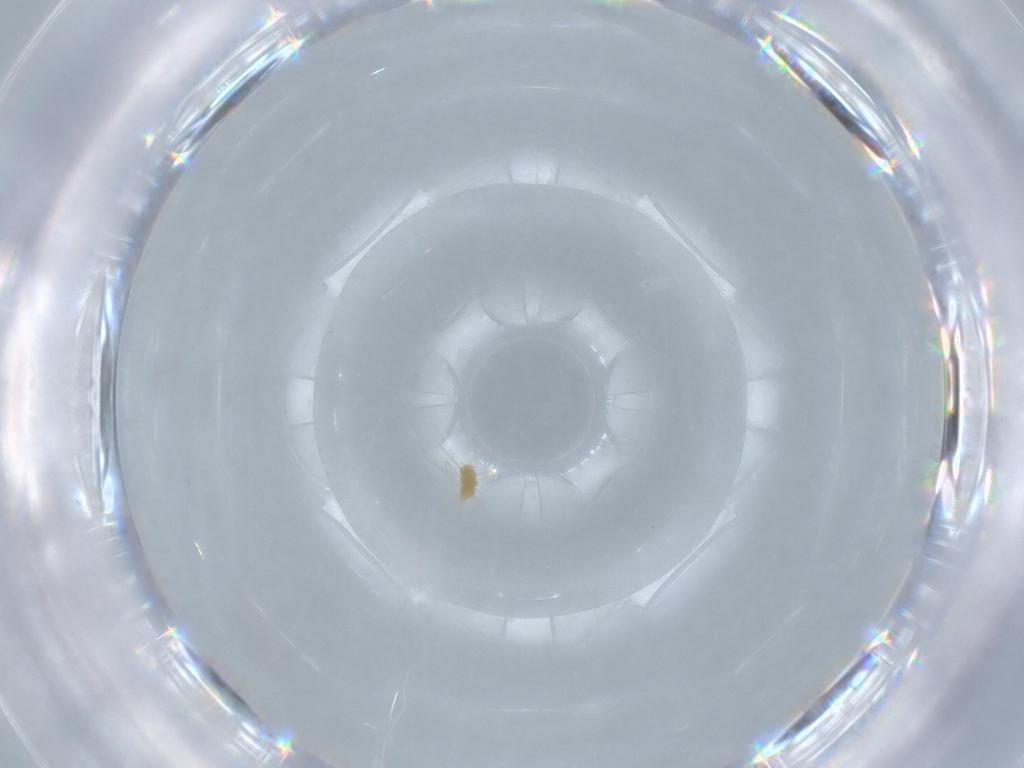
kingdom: Animalia
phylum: Arthropoda
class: Arachnida
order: Trombidiformes
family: Tetranychidae
